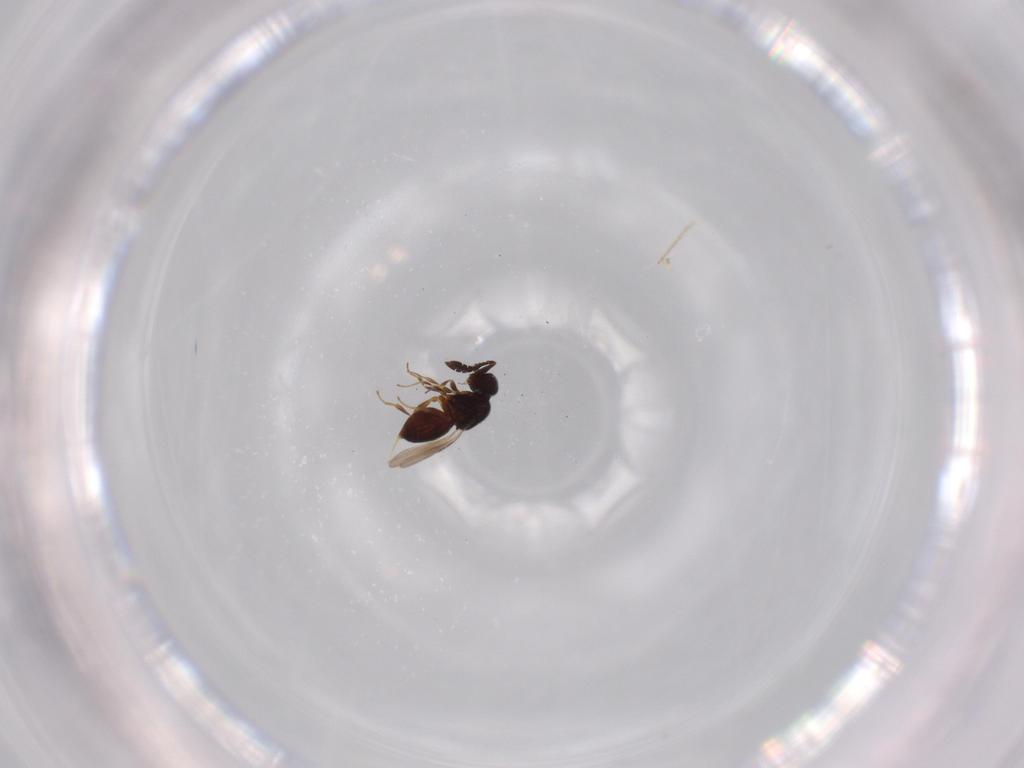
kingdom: Animalia
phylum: Arthropoda
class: Insecta
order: Hymenoptera
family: Ceraphronidae
